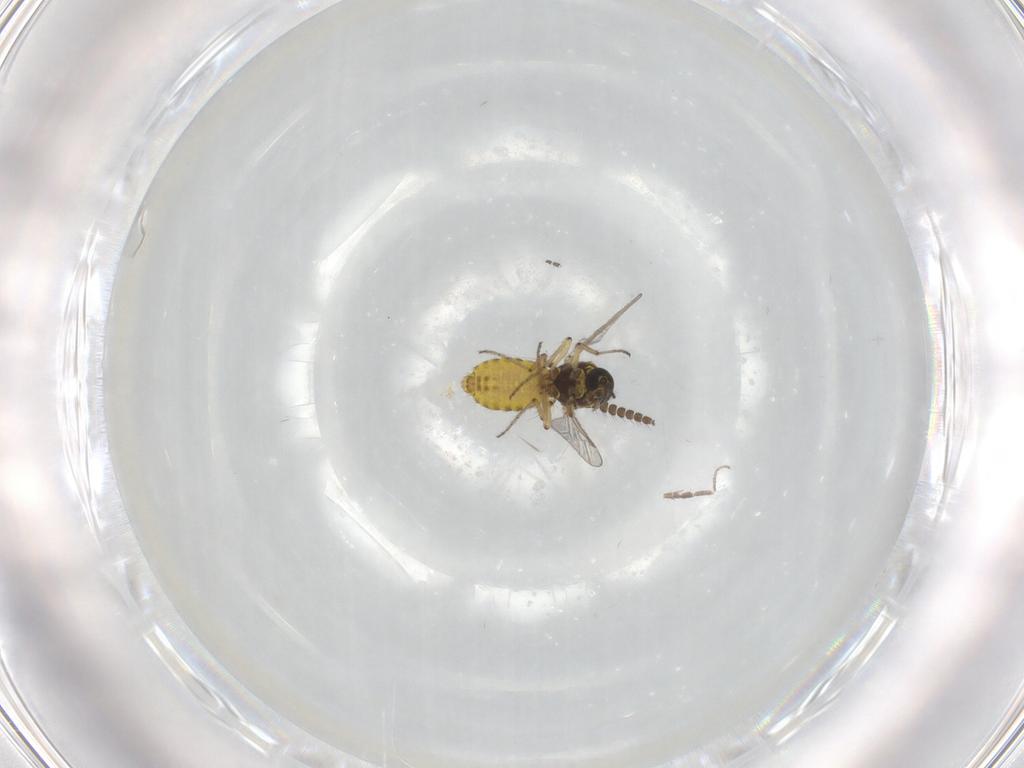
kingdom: Animalia
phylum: Arthropoda
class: Insecta
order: Diptera
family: Ceratopogonidae
